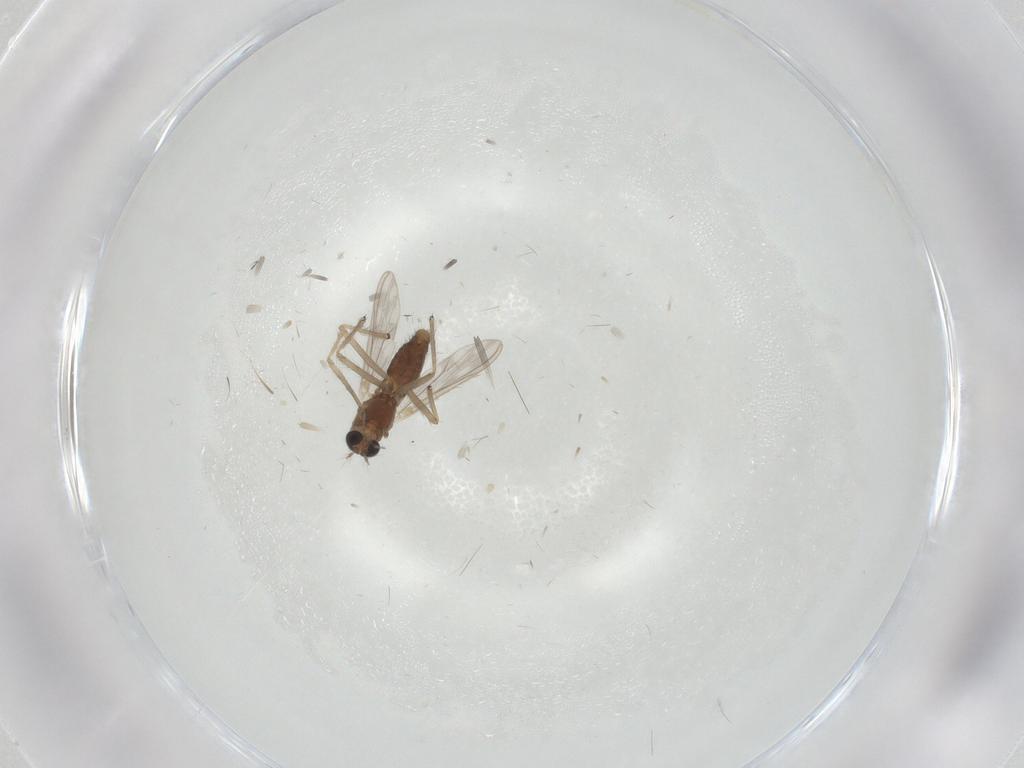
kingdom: Animalia
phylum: Arthropoda
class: Insecta
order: Diptera
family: Chironomidae
